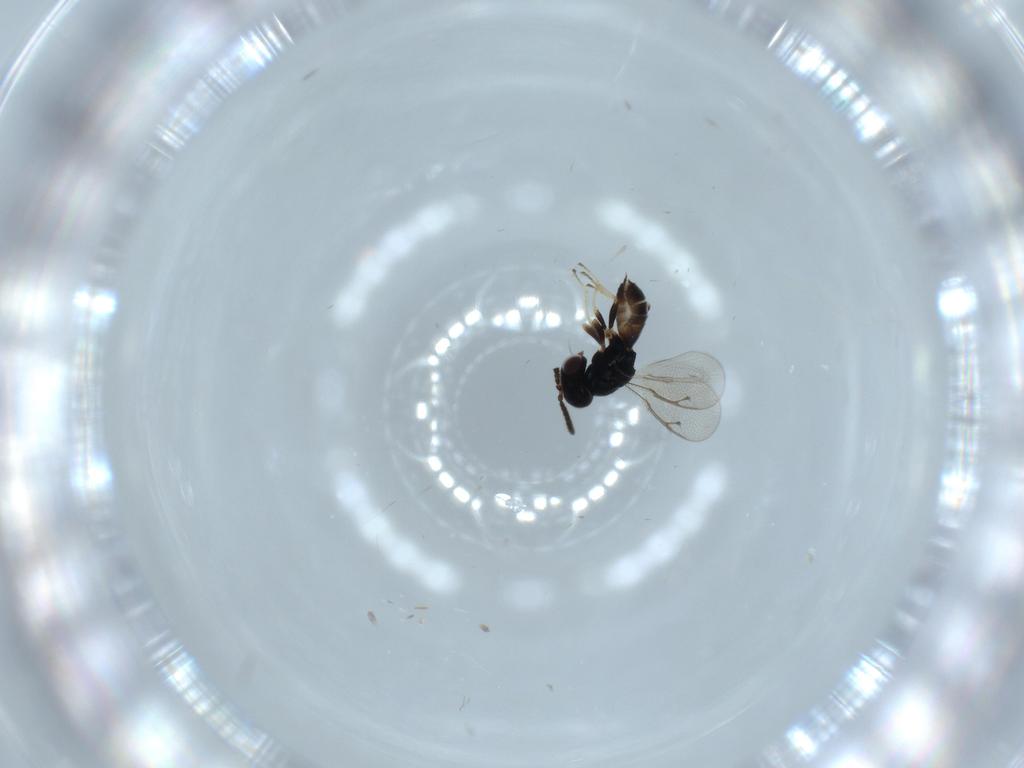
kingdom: Animalia
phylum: Arthropoda
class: Insecta
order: Hymenoptera
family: Pteromalidae
